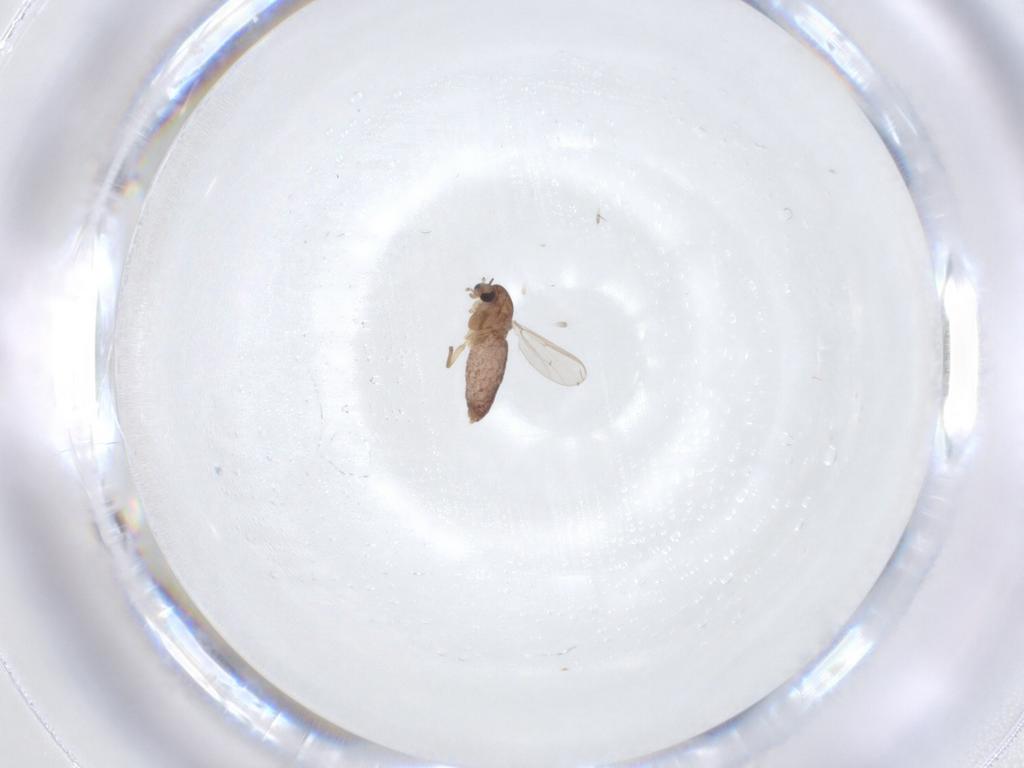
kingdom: Animalia
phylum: Arthropoda
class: Insecta
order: Diptera
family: Chironomidae
